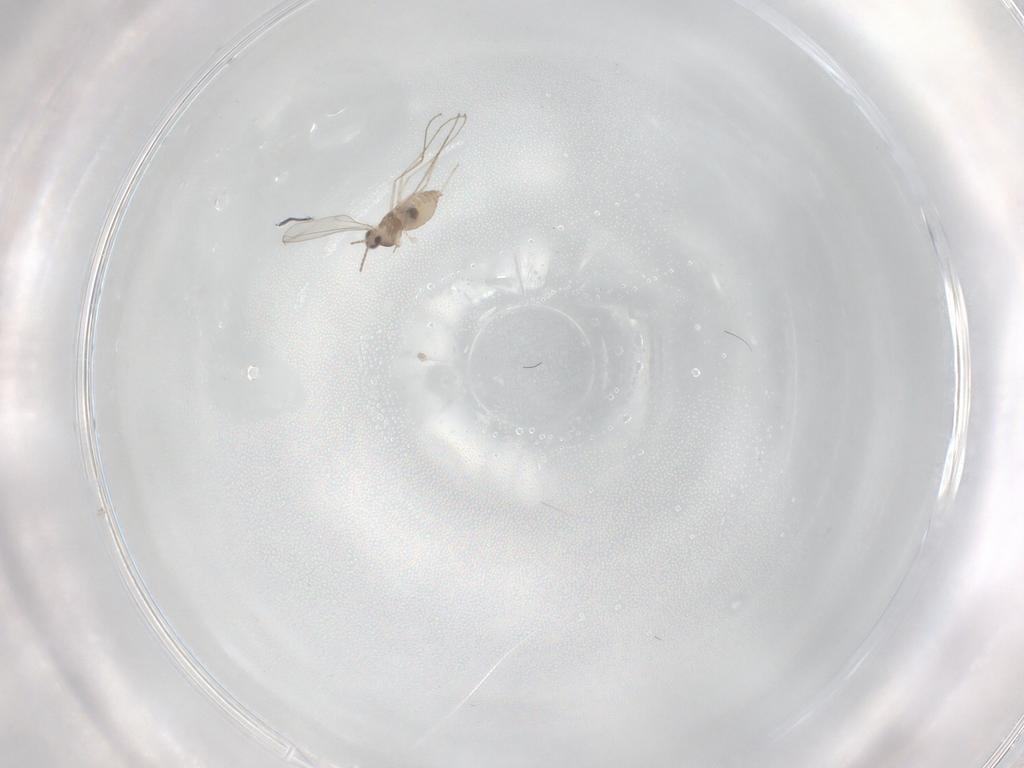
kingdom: Animalia
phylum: Arthropoda
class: Insecta
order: Diptera
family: Cecidomyiidae
